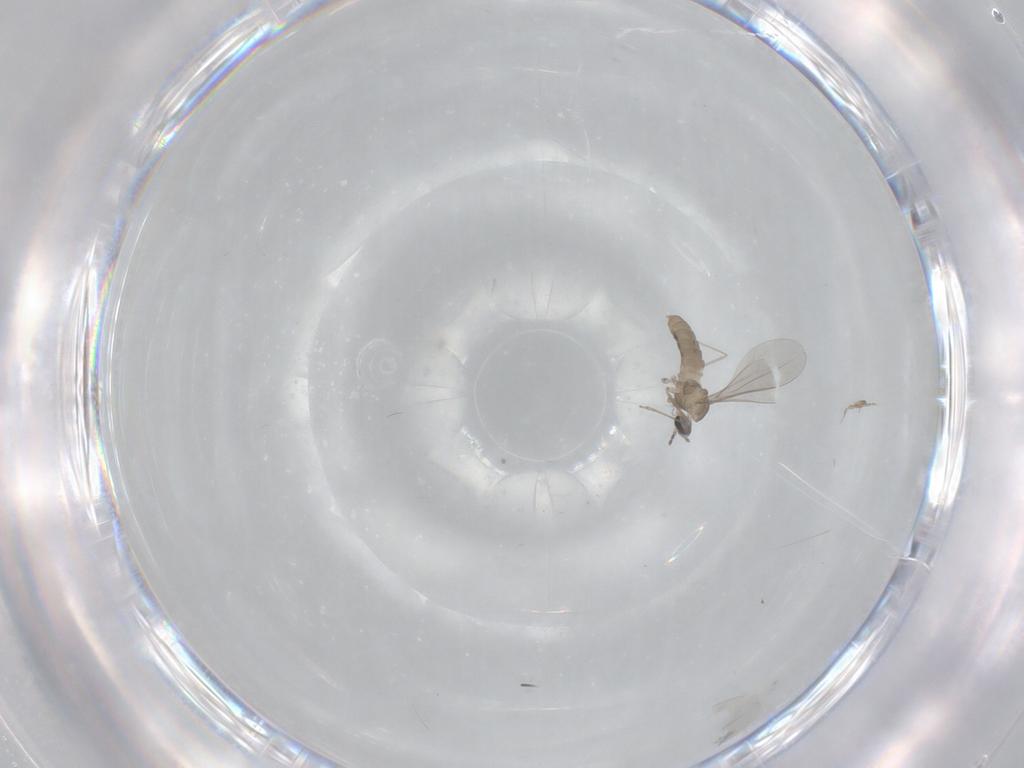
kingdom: Animalia
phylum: Arthropoda
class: Insecta
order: Diptera
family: Cecidomyiidae
